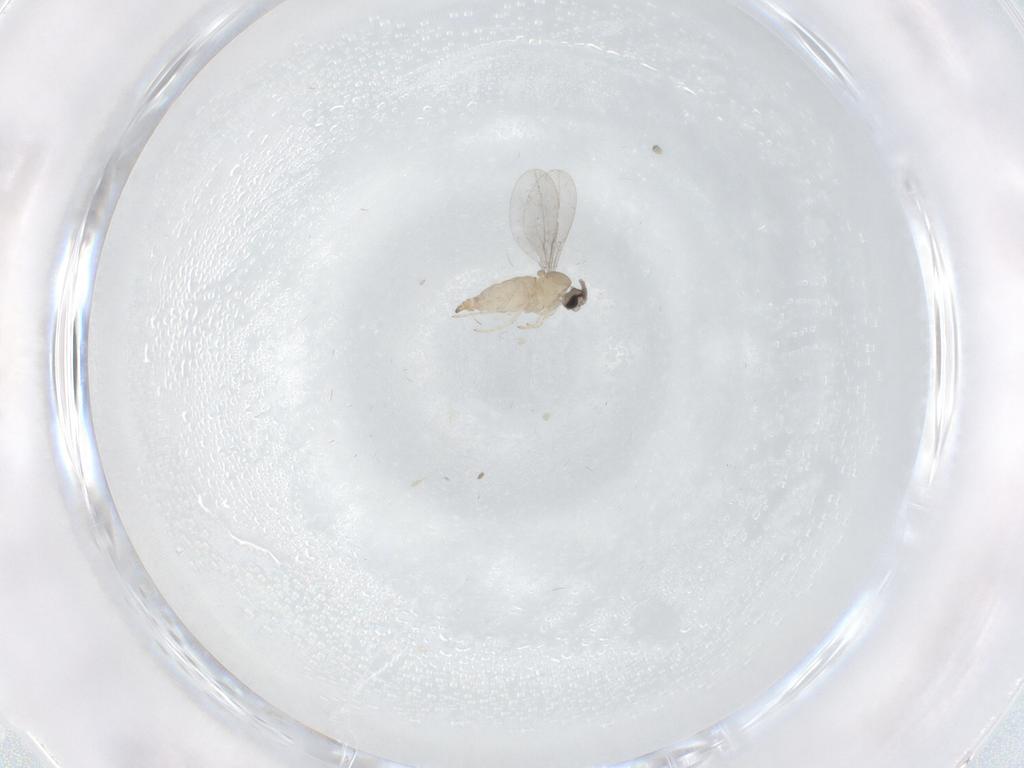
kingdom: Animalia
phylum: Arthropoda
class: Insecta
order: Diptera
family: Cecidomyiidae
